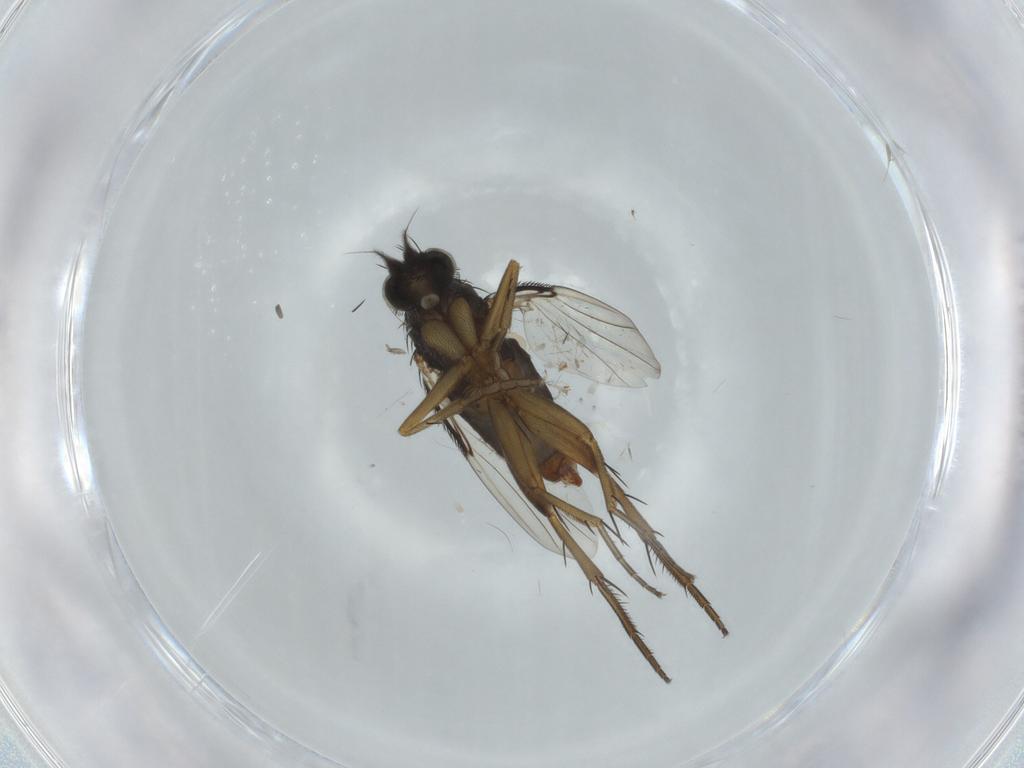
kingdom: Animalia
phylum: Arthropoda
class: Insecta
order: Diptera
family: Phoridae
